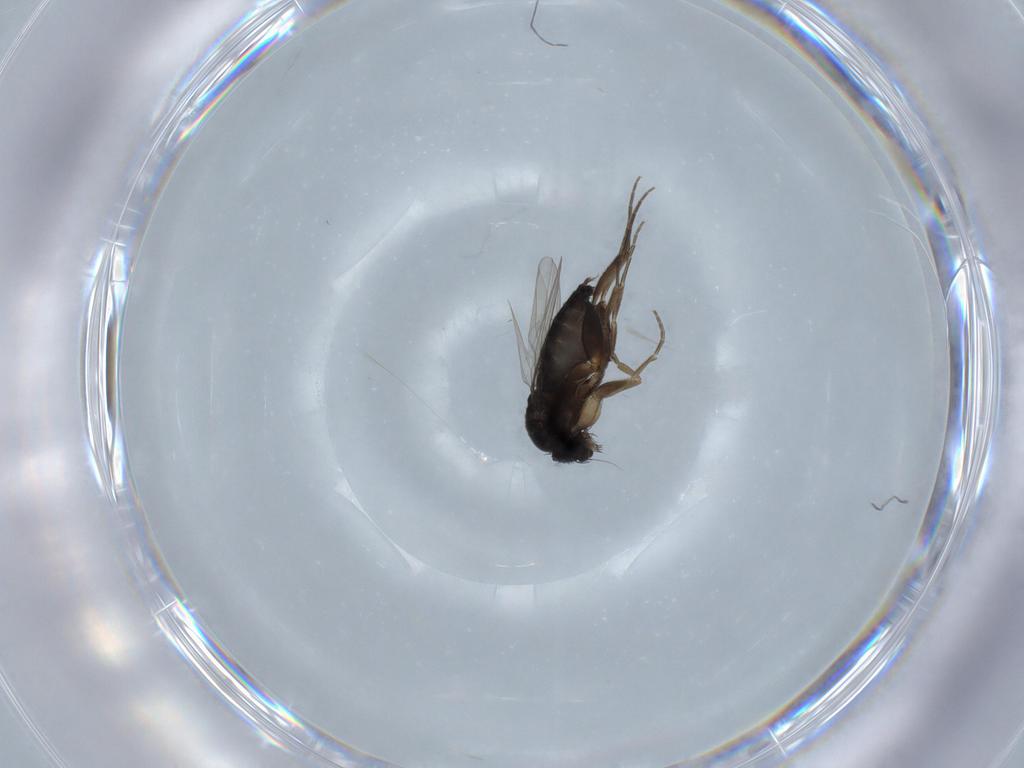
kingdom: Animalia
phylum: Arthropoda
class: Insecta
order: Diptera
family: Phoridae
